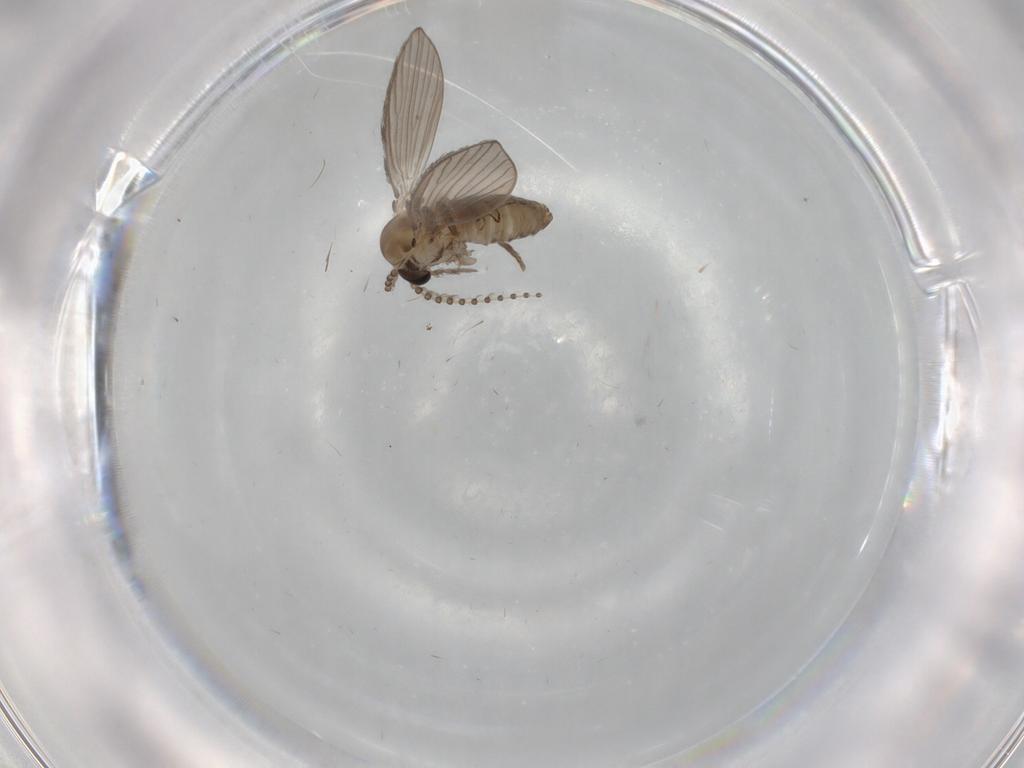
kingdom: Animalia
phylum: Arthropoda
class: Insecta
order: Diptera
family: Psychodidae
